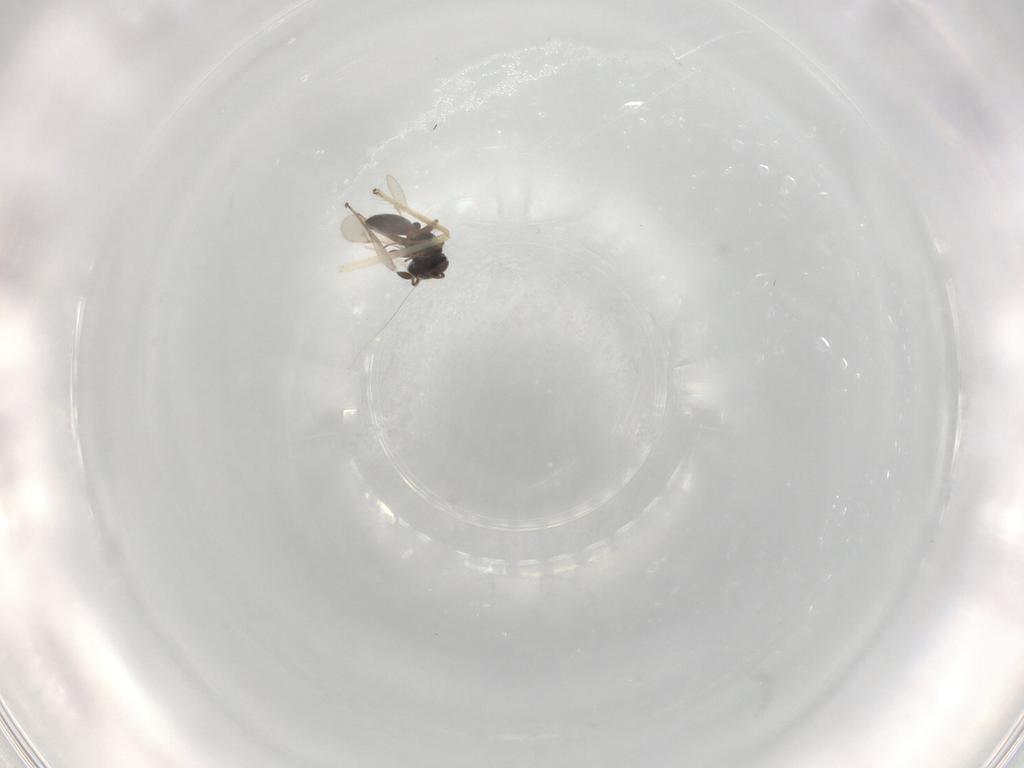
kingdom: Animalia
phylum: Arthropoda
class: Insecta
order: Hymenoptera
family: Scelionidae
